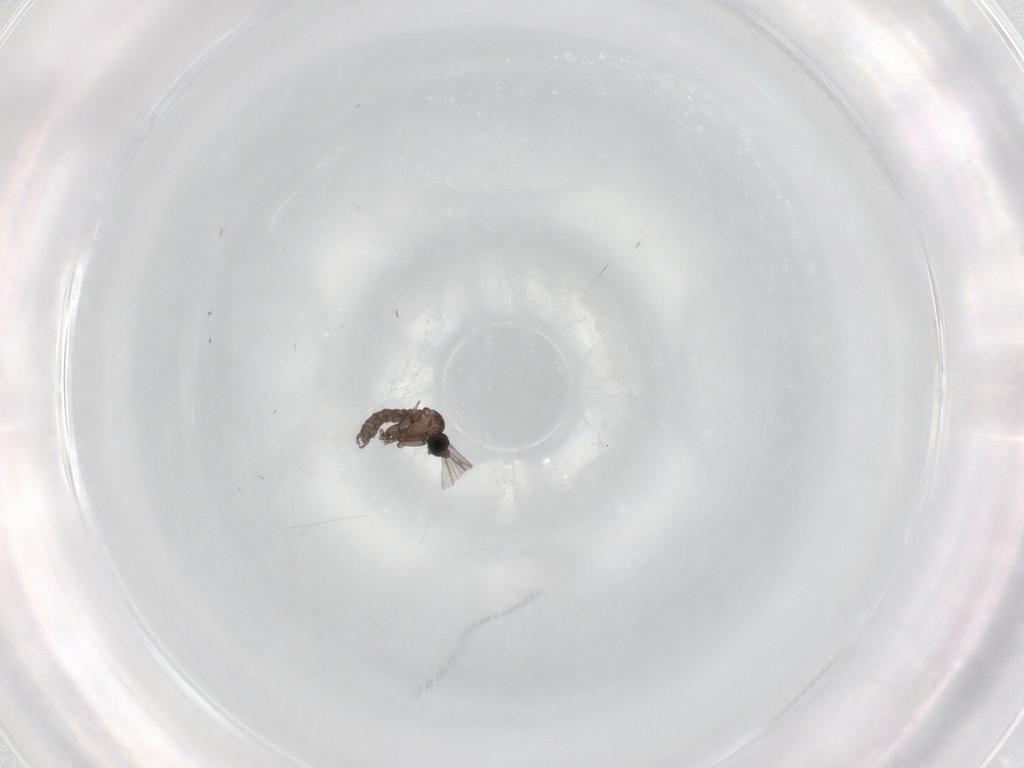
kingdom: Animalia
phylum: Arthropoda
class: Insecta
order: Diptera
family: Sciaridae
